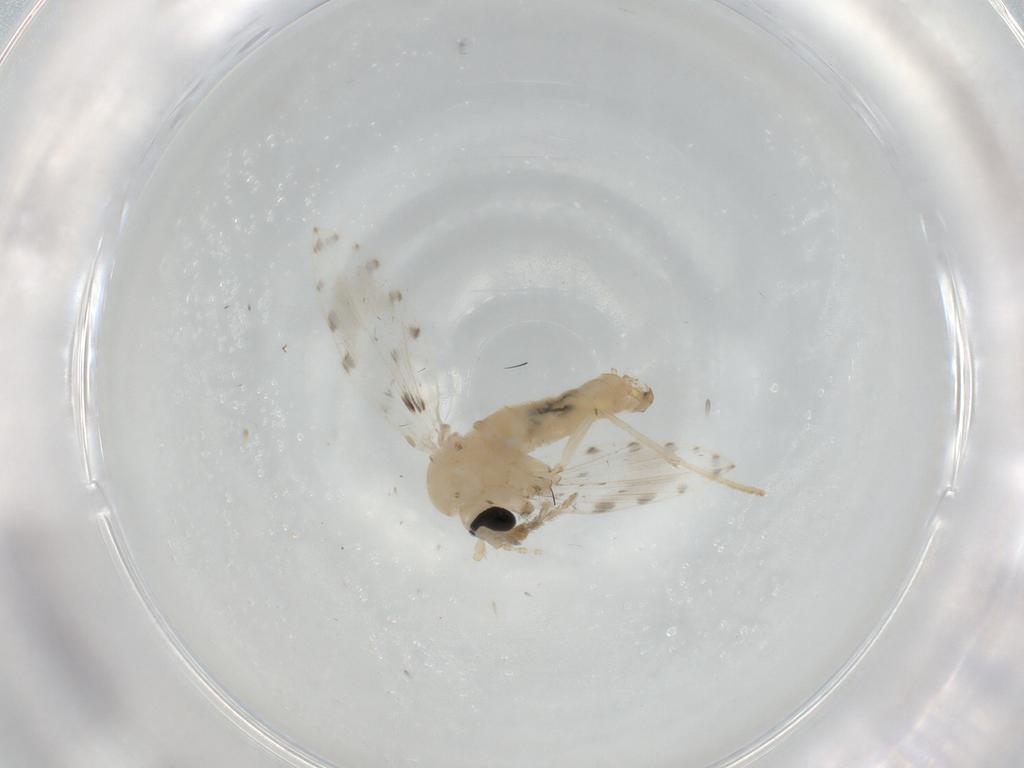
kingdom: Animalia
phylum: Arthropoda
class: Insecta
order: Diptera
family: Psychodidae
